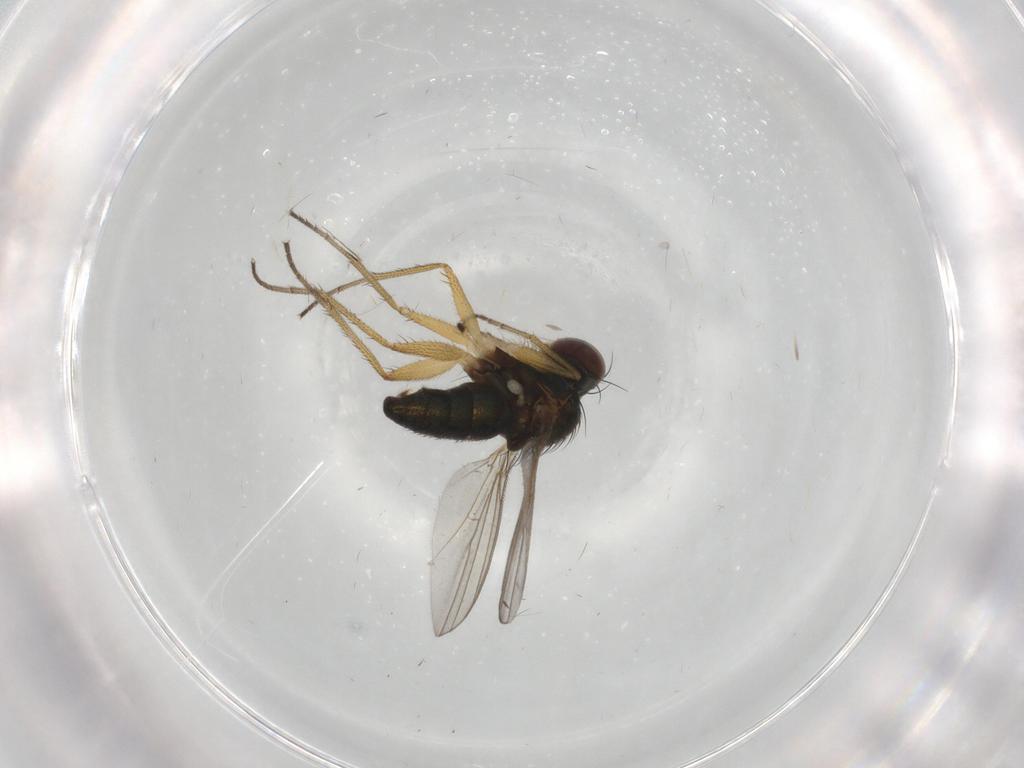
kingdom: Animalia
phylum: Arthropoda
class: Insecta
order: Diptera
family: Cecidomyiidae
